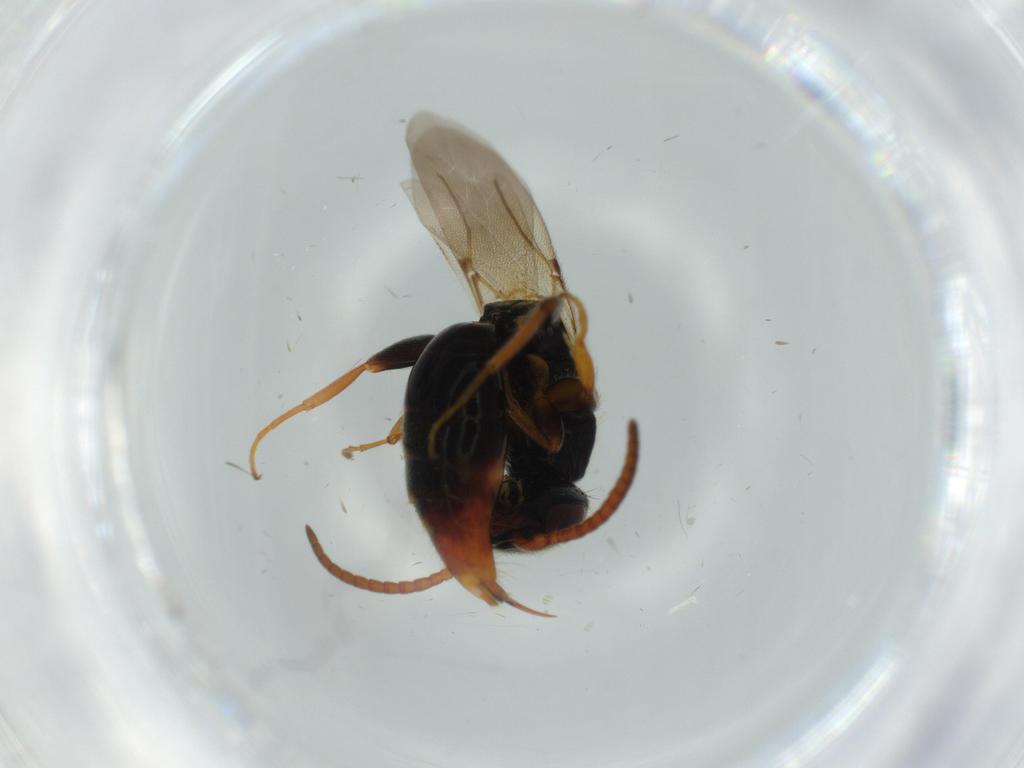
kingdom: Animalia
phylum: Arthropoda
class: Insecta
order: Hymenoptera
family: Bethylidae
